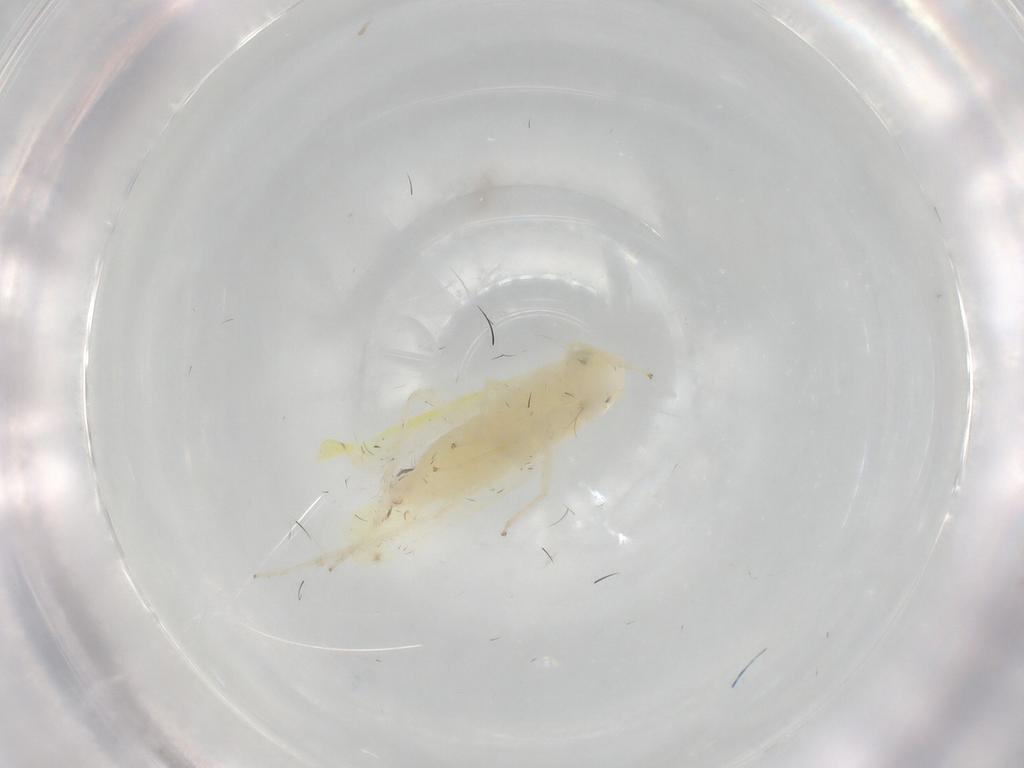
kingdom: Animalia
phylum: Arthropoda
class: Insecta
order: Hemiptera
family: Cicadellidae
